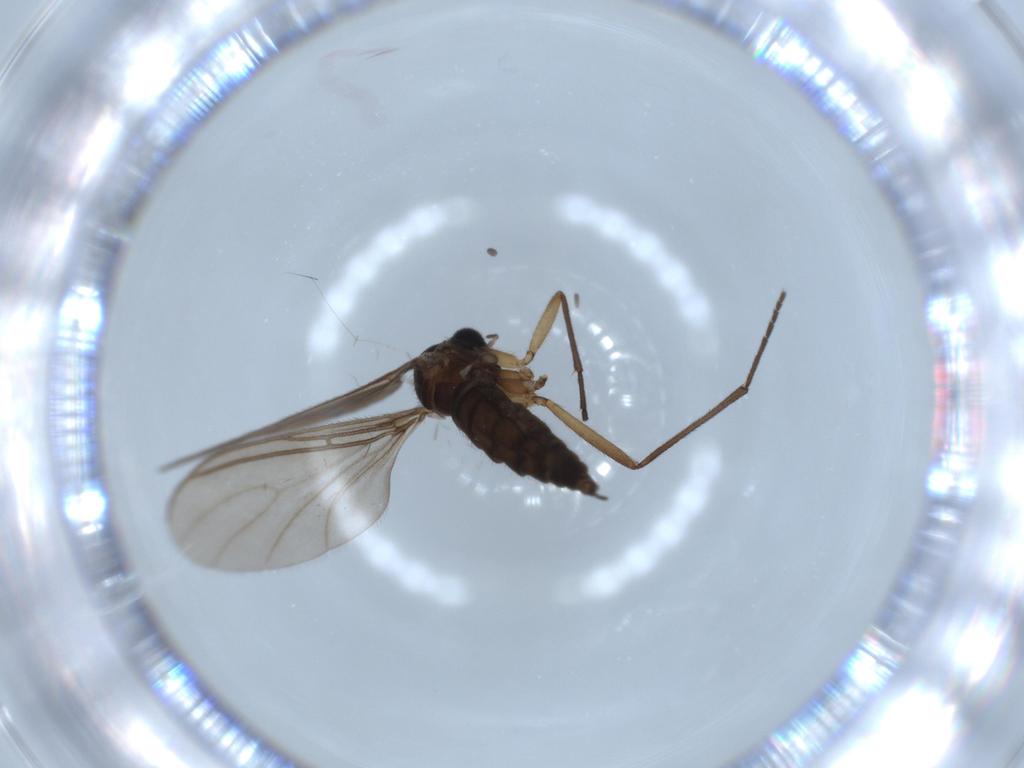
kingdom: Animalia
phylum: Arthropoda
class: Insecta
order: Diptera
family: Sciaridae
